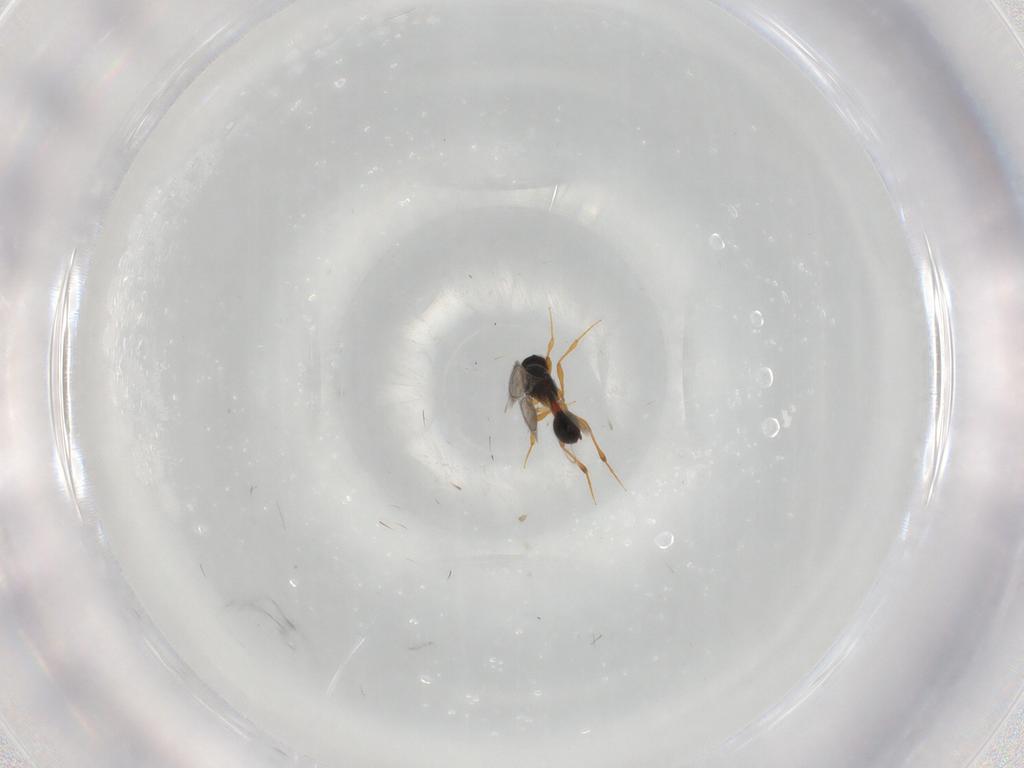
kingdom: Animalia
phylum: Arthropoda
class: Insecta
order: Hymenoptera
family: Platygastridae
